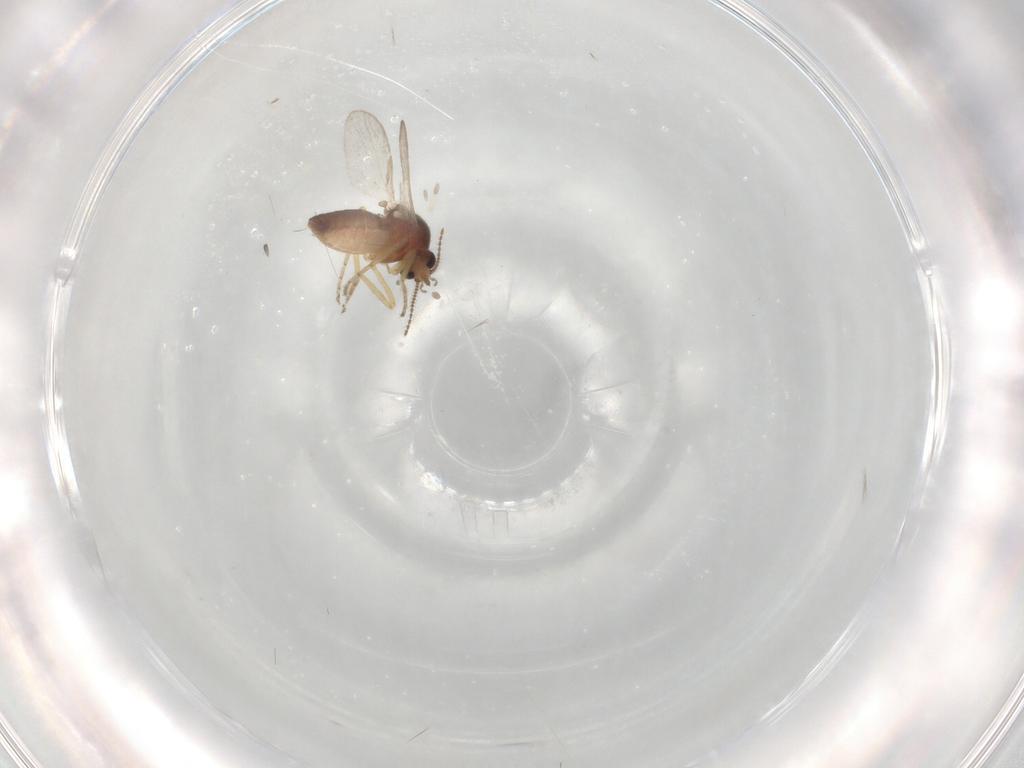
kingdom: Animalia
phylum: Arthropoda
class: Insecta
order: Diptera
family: Ceratopogonidae
